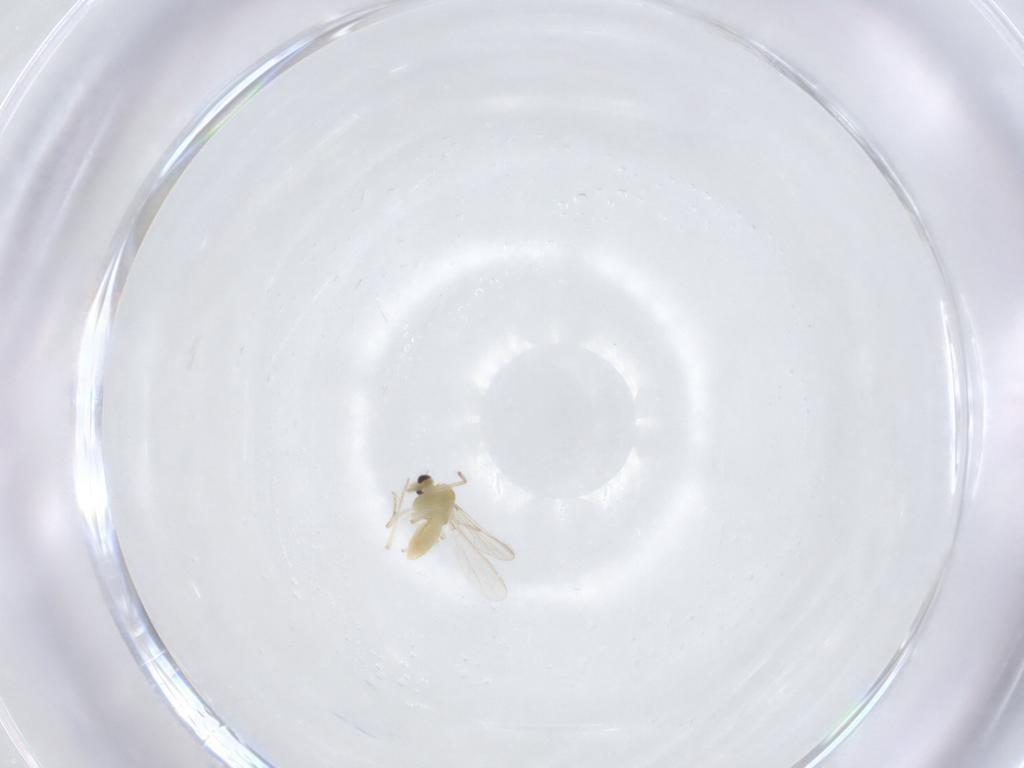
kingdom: Animalia
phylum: Arthropoda
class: Insecta
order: Diptera
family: Chironomidae
